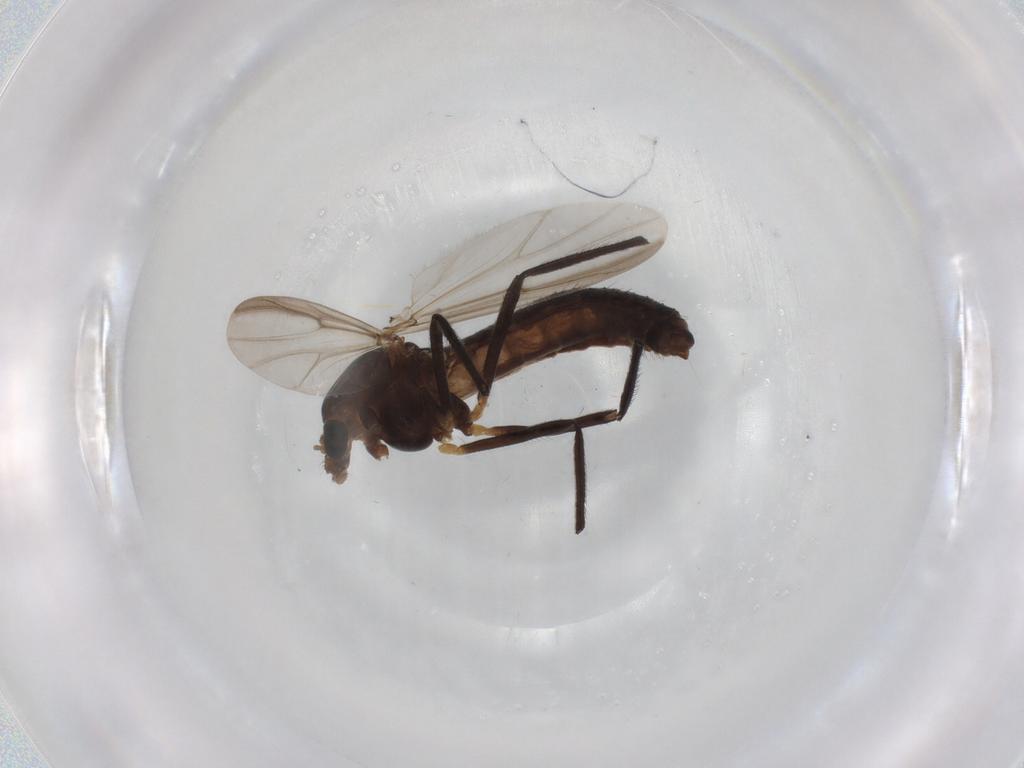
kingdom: Animalia
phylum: Arthropoda
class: Insecta
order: Diptera
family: Chironomidae
